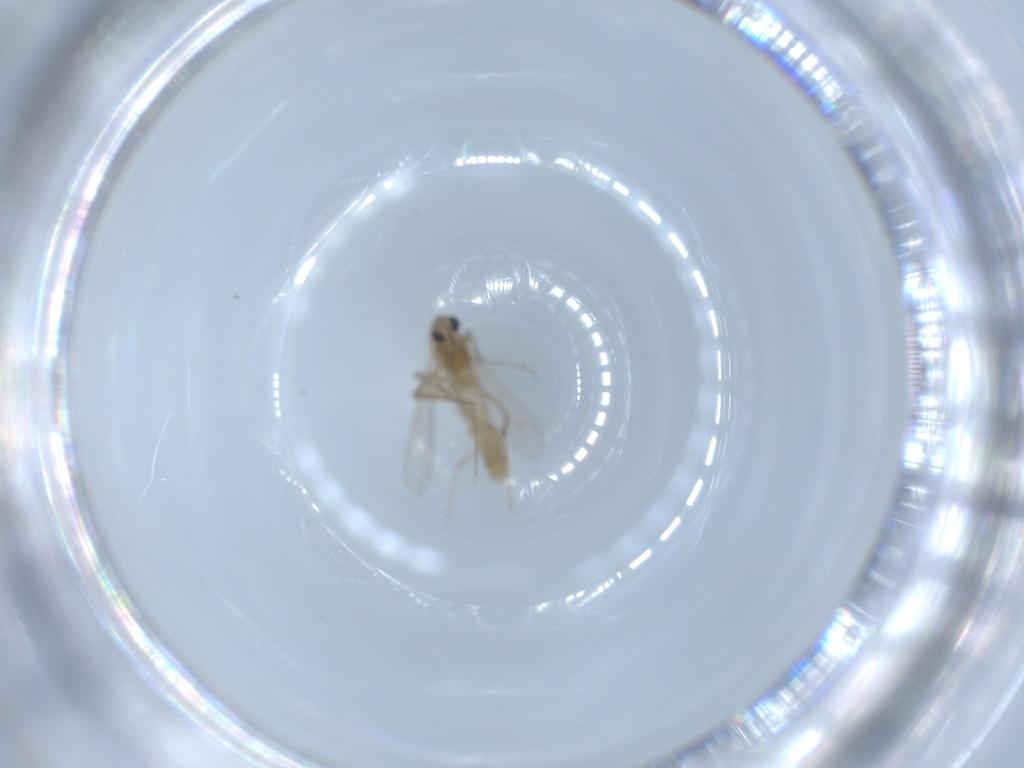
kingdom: Animalia
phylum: Arthropoda
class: Insecta
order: Diptera
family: Chironomidae
